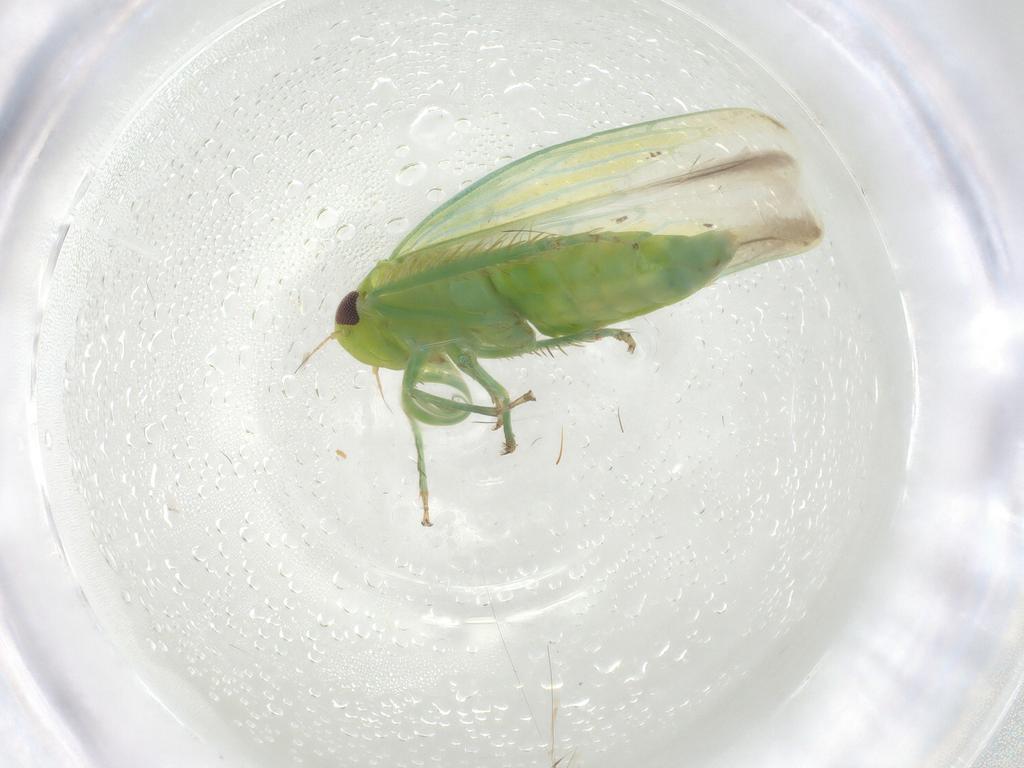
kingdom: Animalia
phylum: Arthropoda
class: Insecta
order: Hemiptera
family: Cicadellidae
